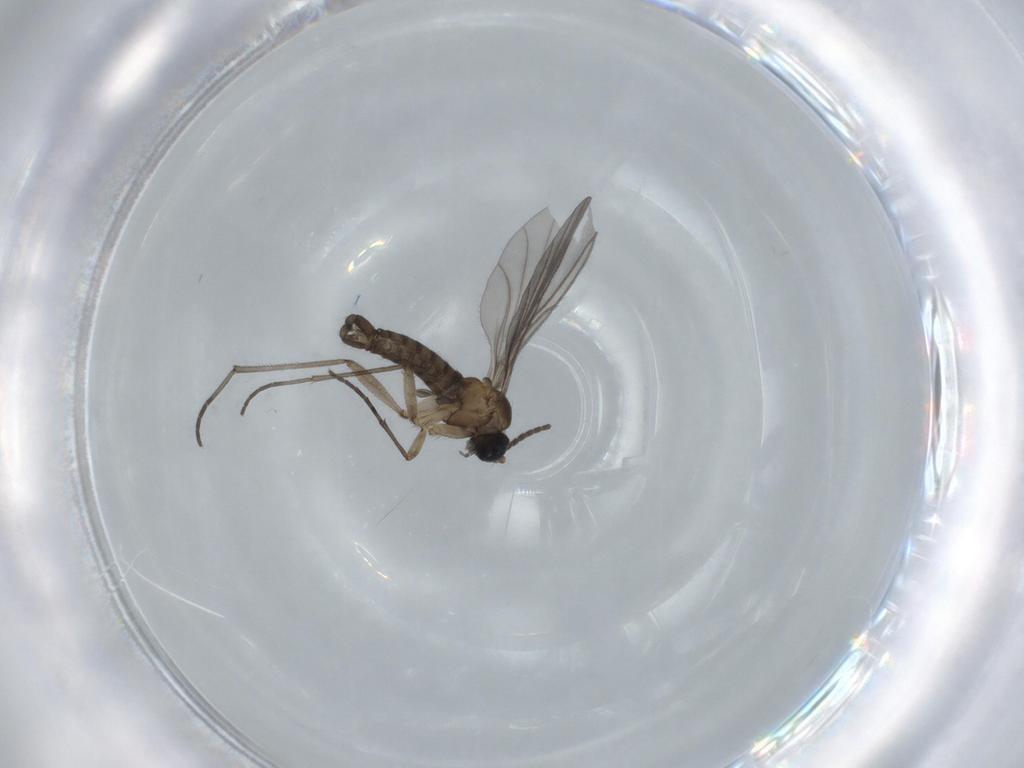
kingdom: Animalia
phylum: Arthropoda
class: Insecta
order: Diptera
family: Sciaridae
